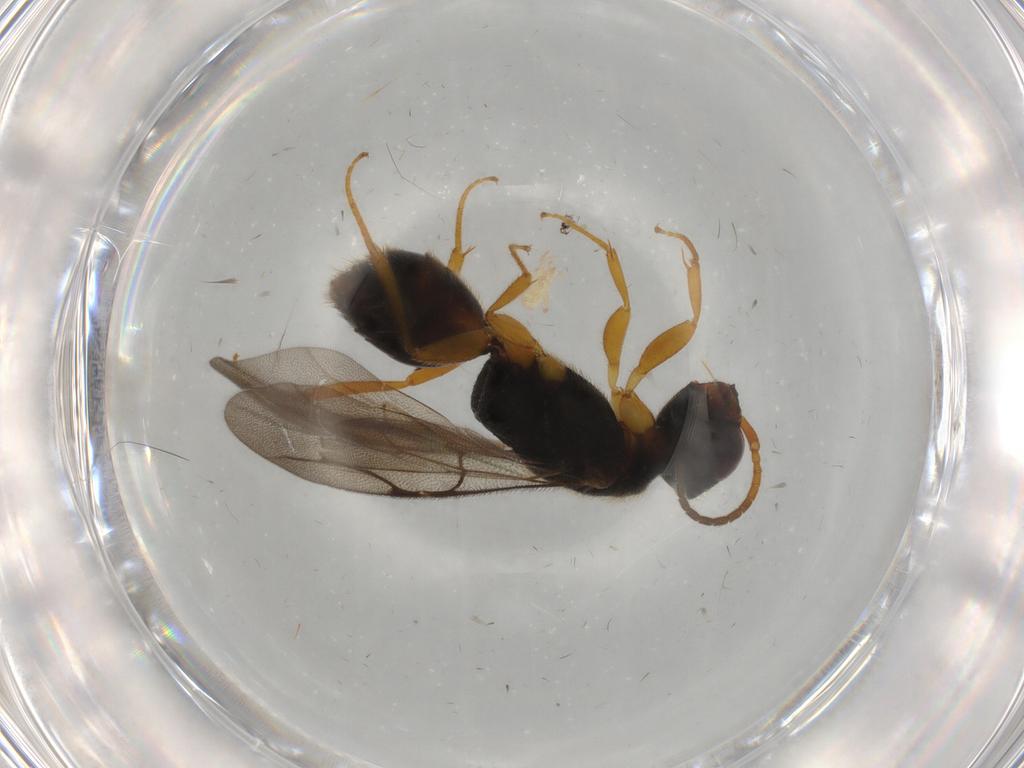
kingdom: Animalia
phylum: Arthropoda
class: Insecta
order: Hymenoptera
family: Bethylidae
